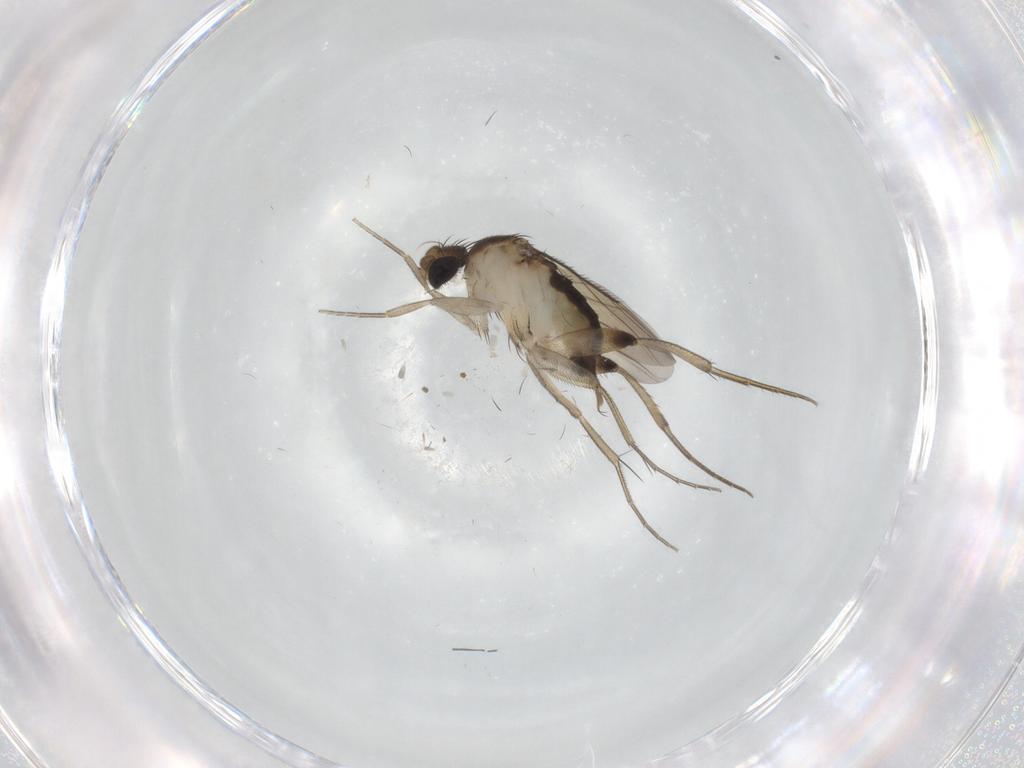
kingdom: Animalia
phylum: Arthropoda
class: Insecta
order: Diptera
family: Phoridae
